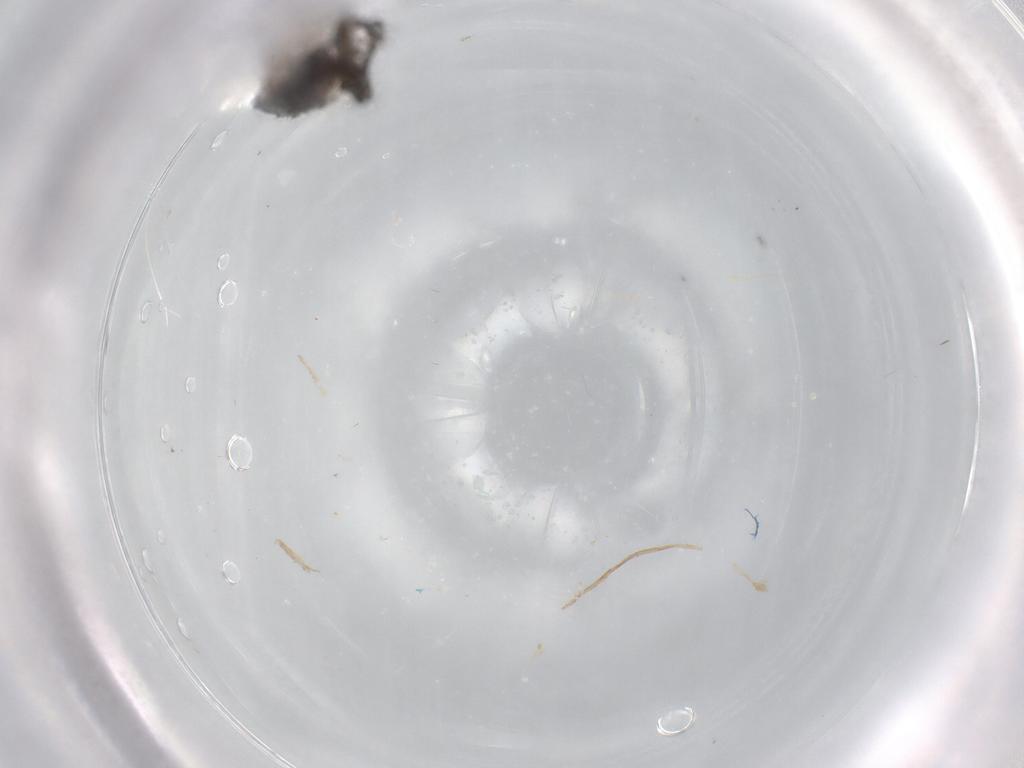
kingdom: Animalia
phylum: Arthropoda
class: Insecta
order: Diptera
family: Phoridae
